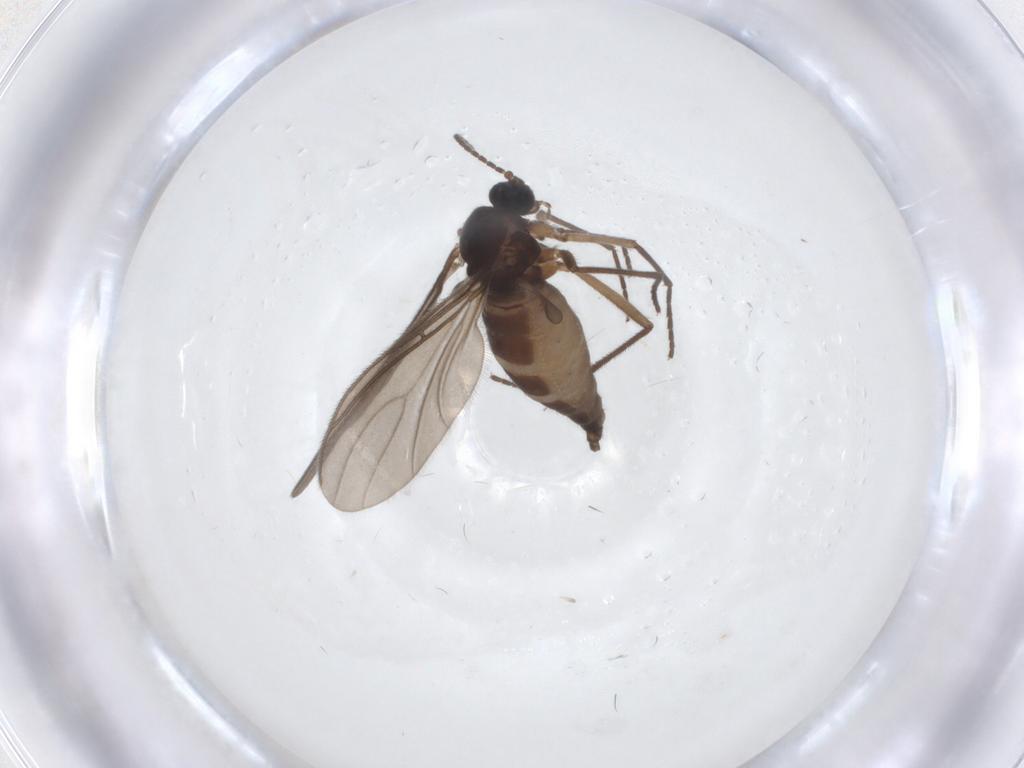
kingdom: Animalia
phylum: Arthropoda
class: Insecta
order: Diptera
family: Sciaridae
